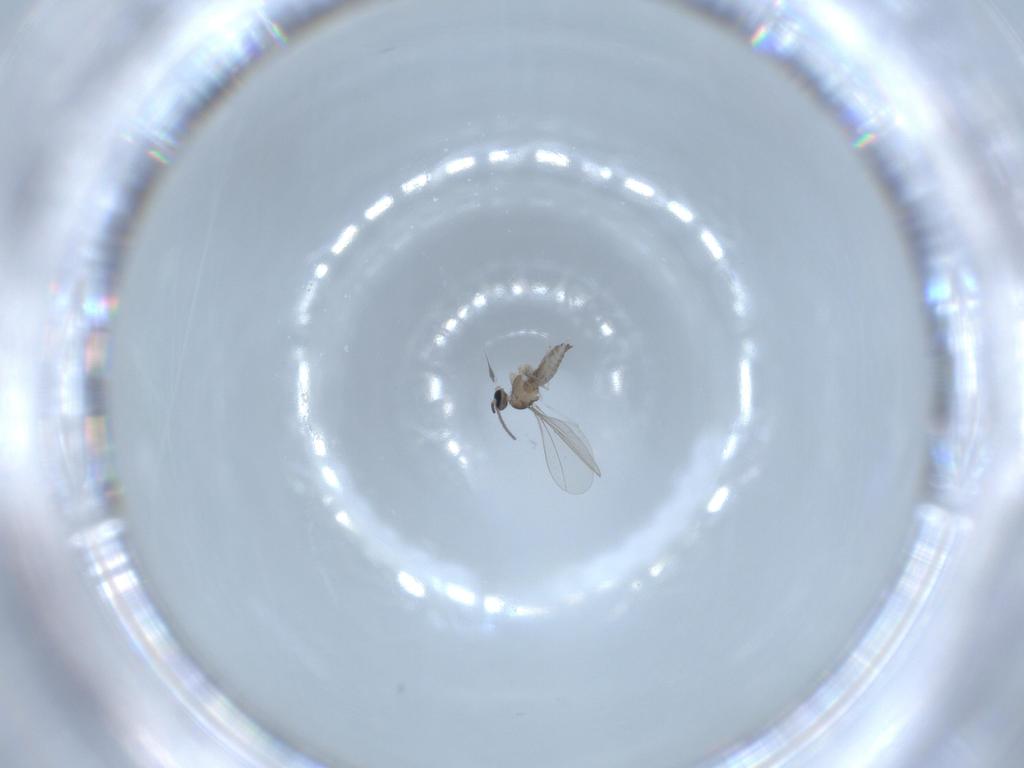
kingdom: Animalia
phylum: Arthropoda
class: Insecta
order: Diptera
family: Cecidomyiidae
